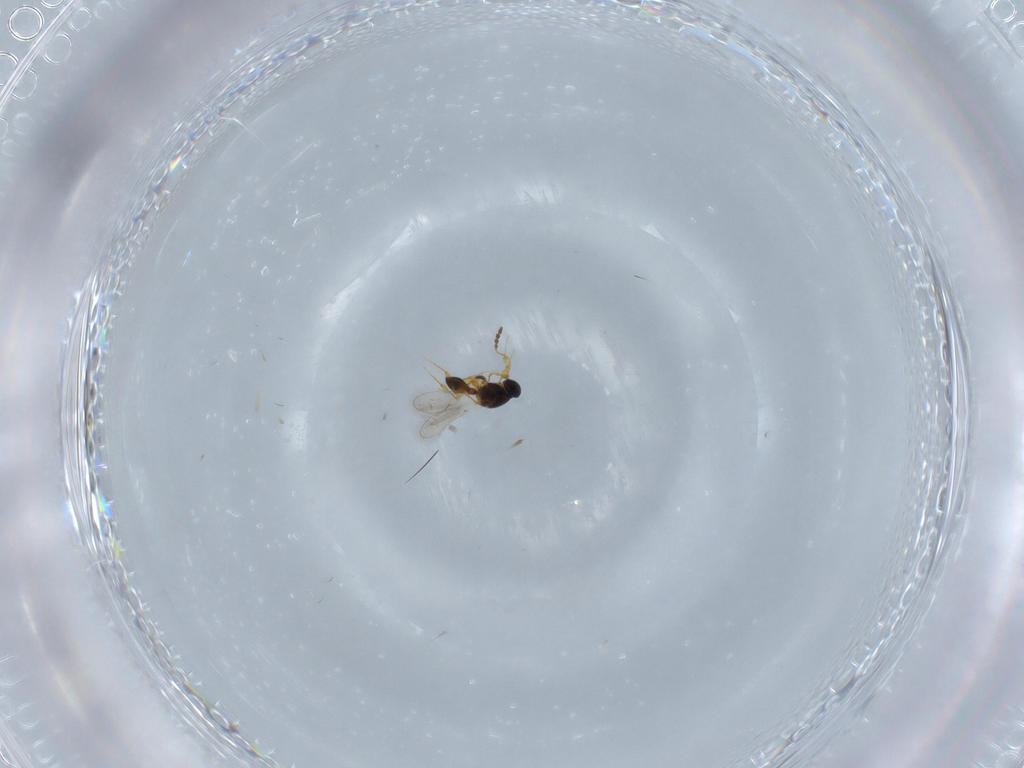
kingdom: Animalia
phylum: Arthropoda
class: Insecta
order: Hymenoptera
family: Platygastridae
